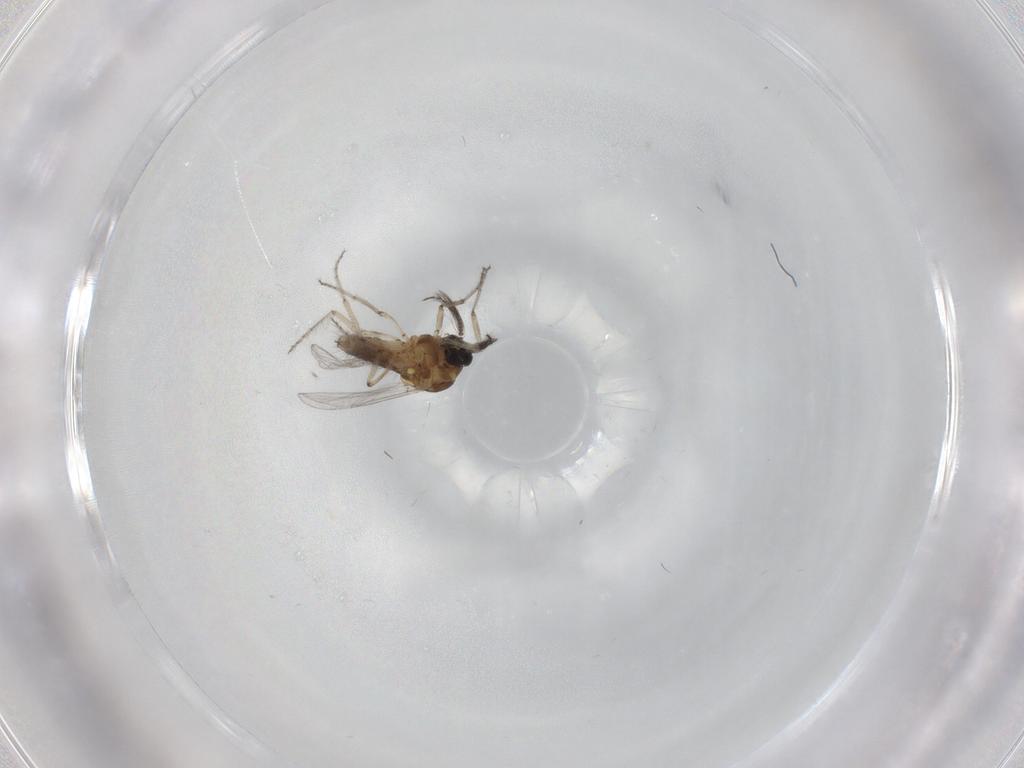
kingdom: Animalia
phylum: Arthropoda
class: Insecta
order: Diptera
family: Ceratopogonidae
